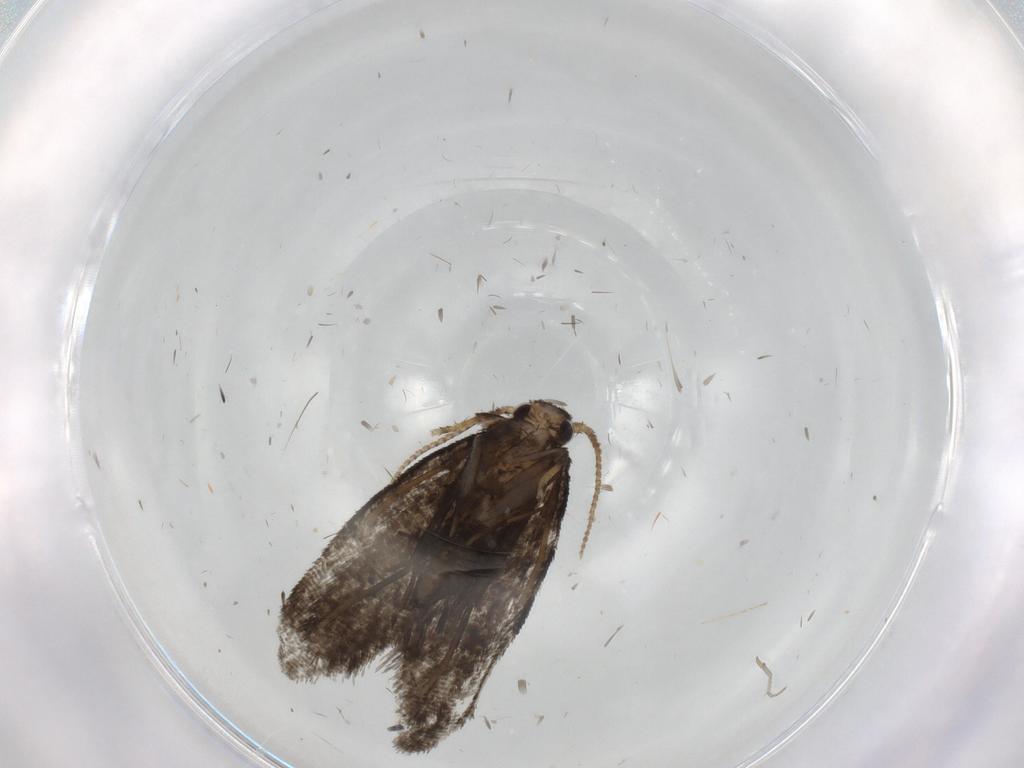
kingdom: Animalia
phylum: Arthropoda
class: Insecta
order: Lepidoptera
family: Psychidae
